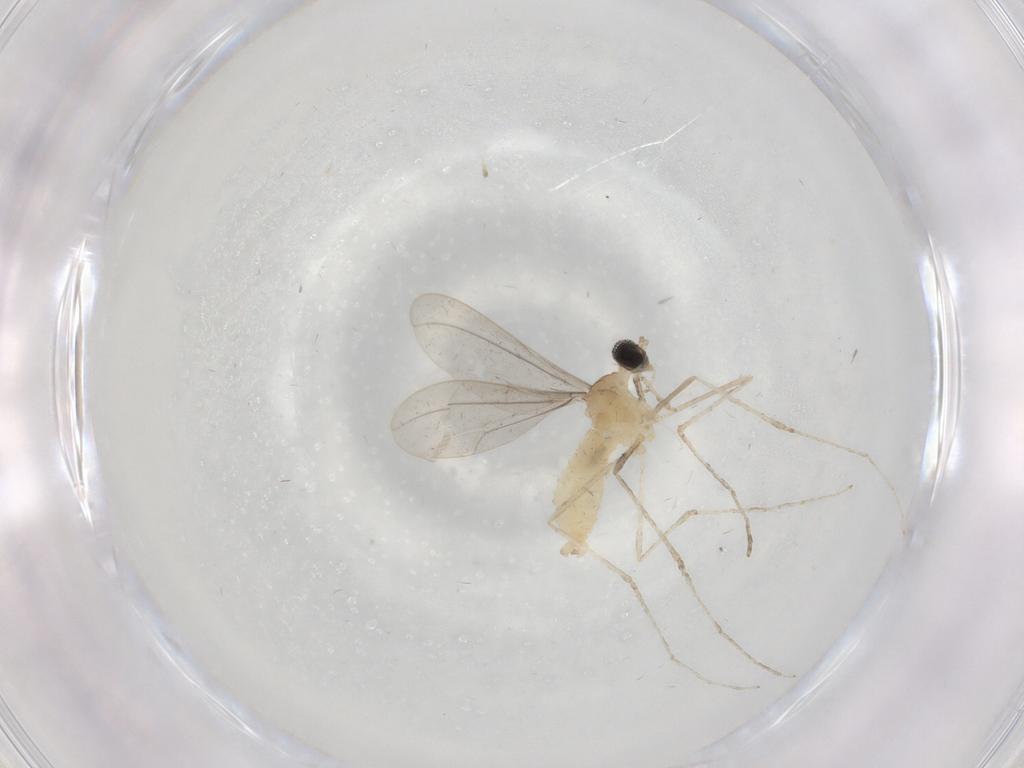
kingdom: Animalia
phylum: Arthropoda
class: Insecta
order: Diptera
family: Cecidomyiidae
